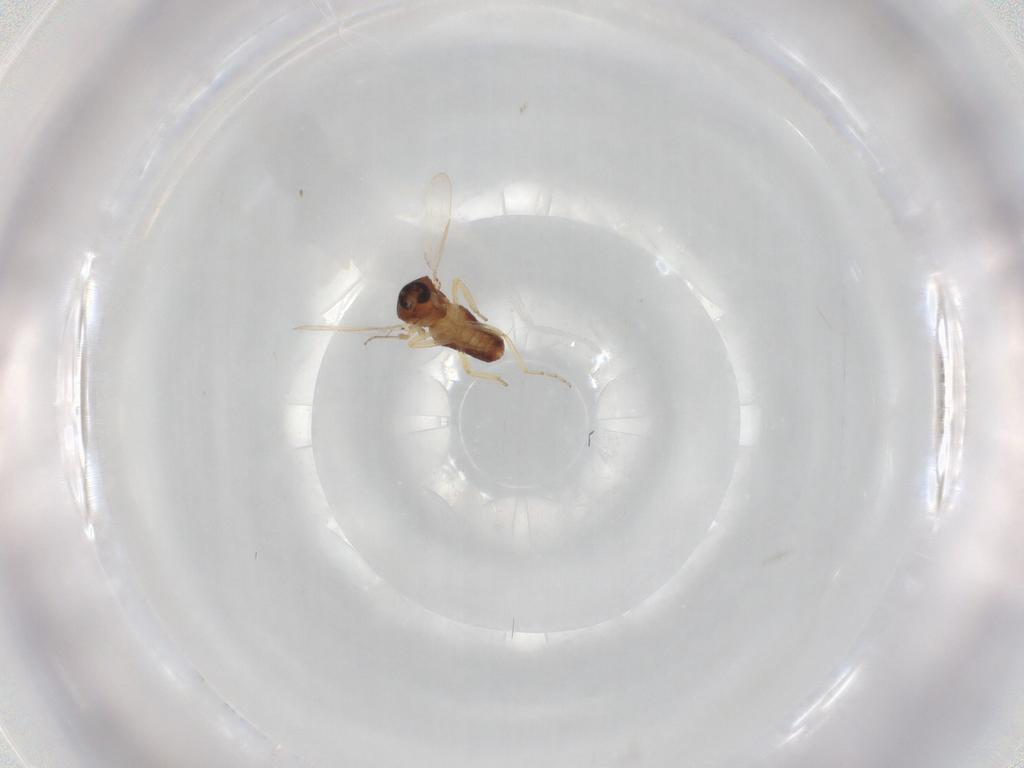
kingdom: Animalia
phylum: Arthropoda
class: Insecta
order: Diptera
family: Ceratopogonidae
